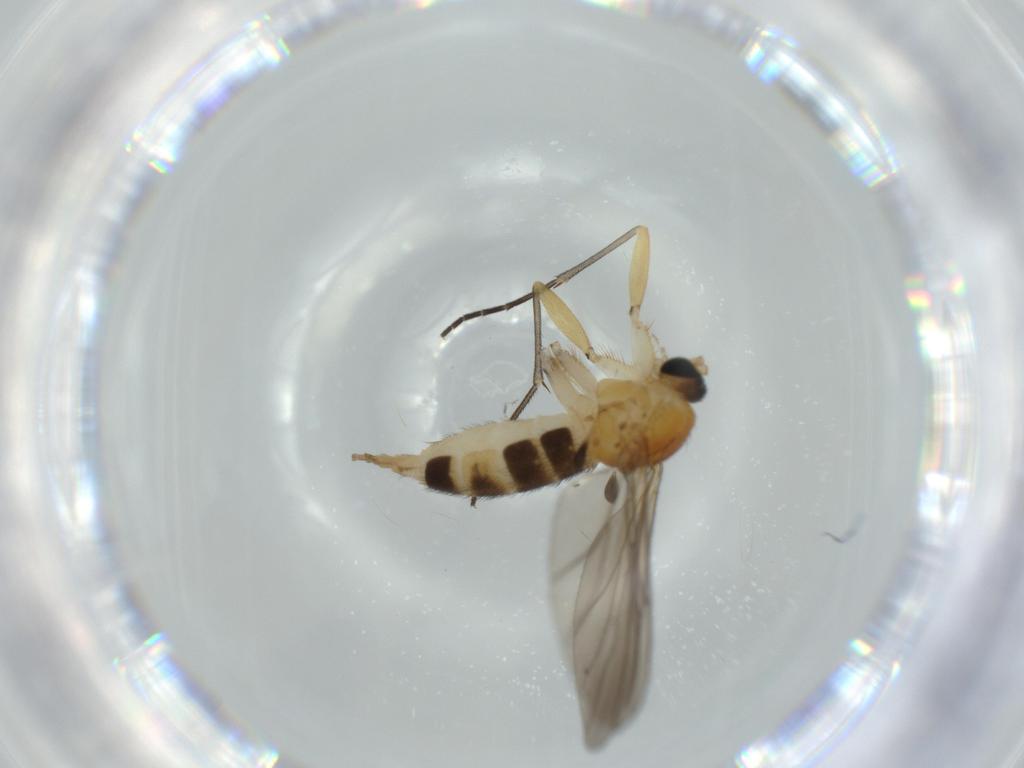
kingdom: Animalia
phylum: Arthropoda
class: Insecta
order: Diptera
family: Sciaridae
